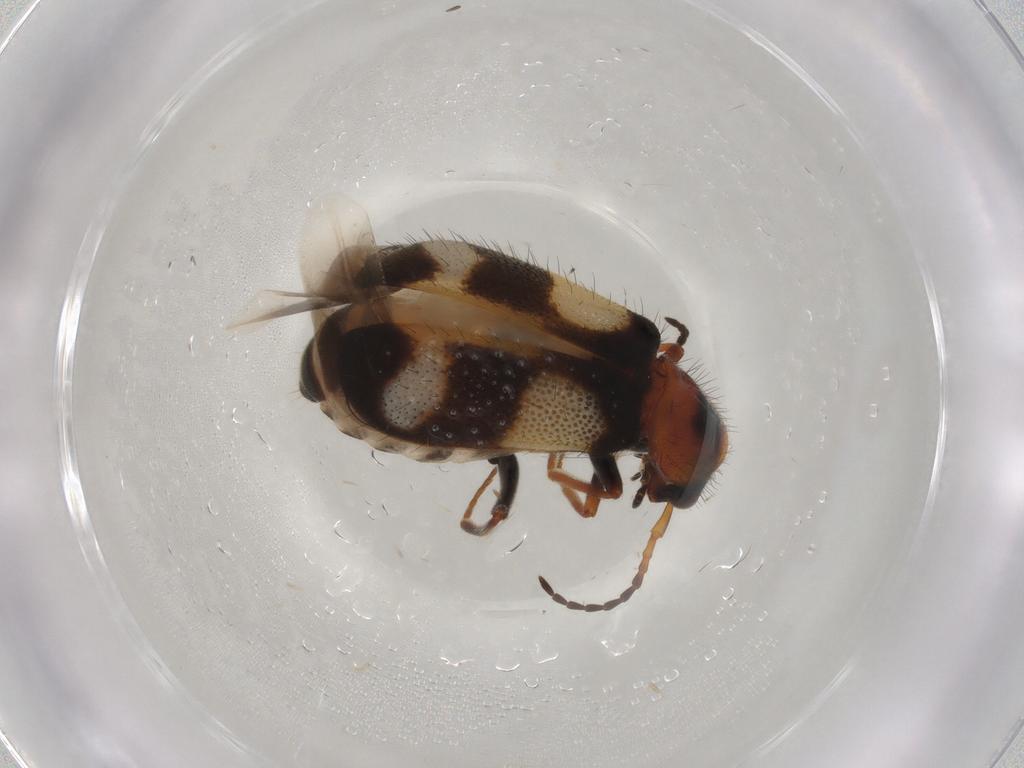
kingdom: Animalia
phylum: Arthropoda
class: Insecta
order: Coleoptera
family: Melyridae
